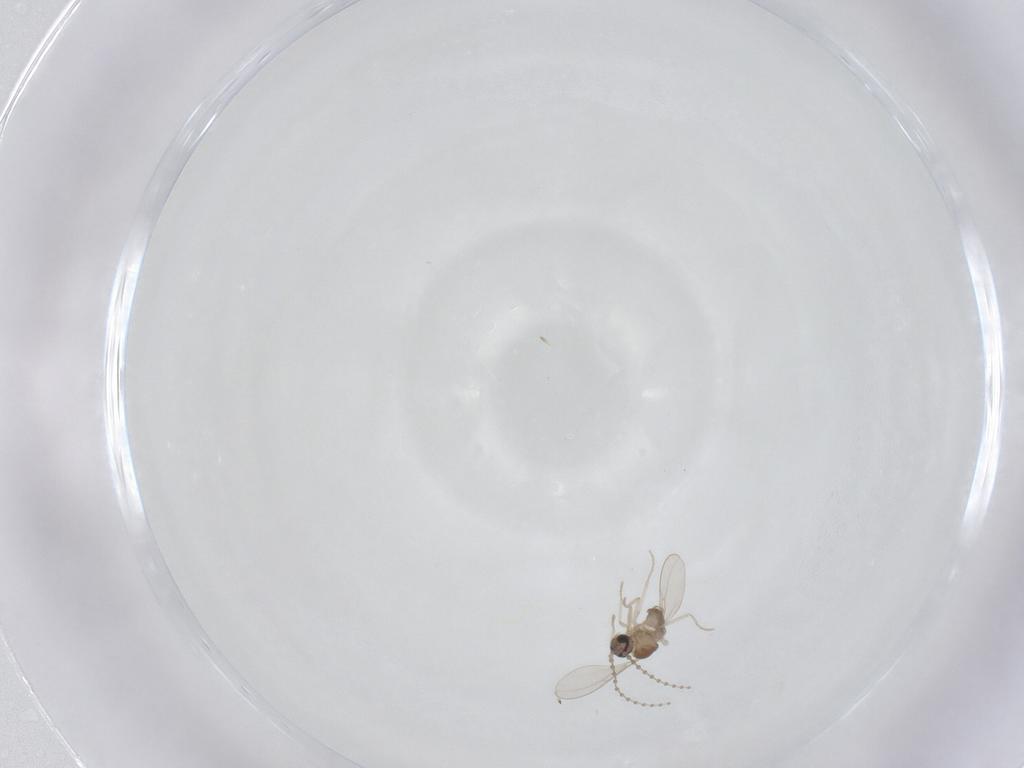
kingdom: Animalia
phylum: Arthropoda
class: Insecta
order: Diptera
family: Cecidomyiidae
